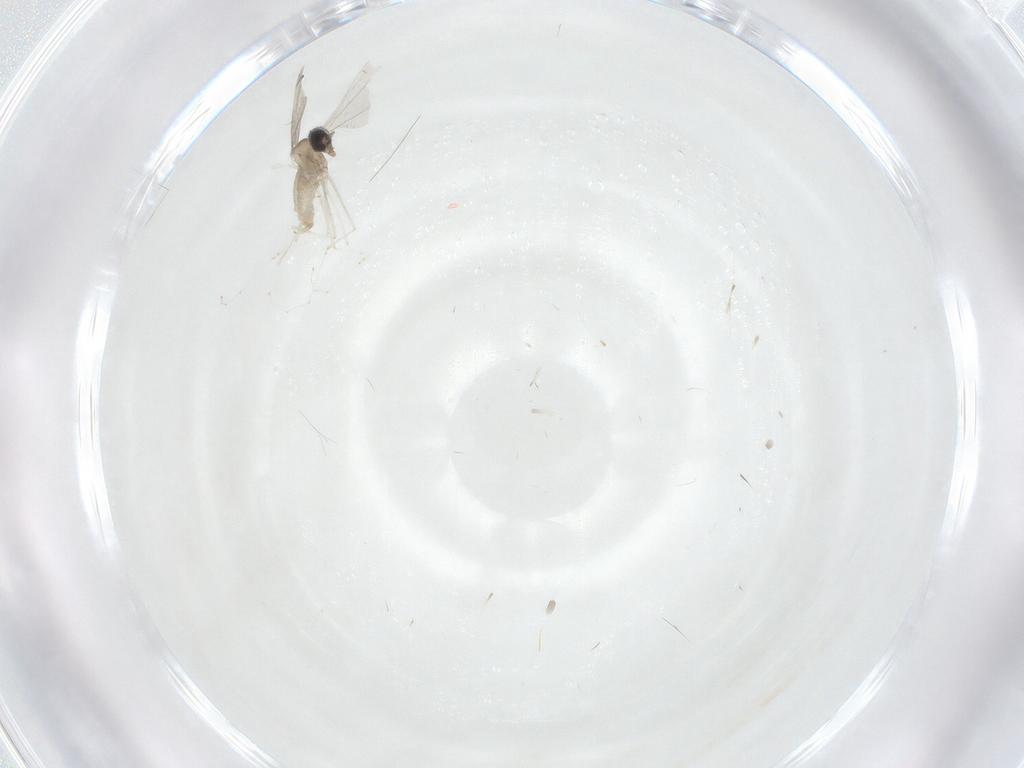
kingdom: Animalia
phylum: Arthropoda
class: Insecta
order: Diptera
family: Cecidomyiidae
